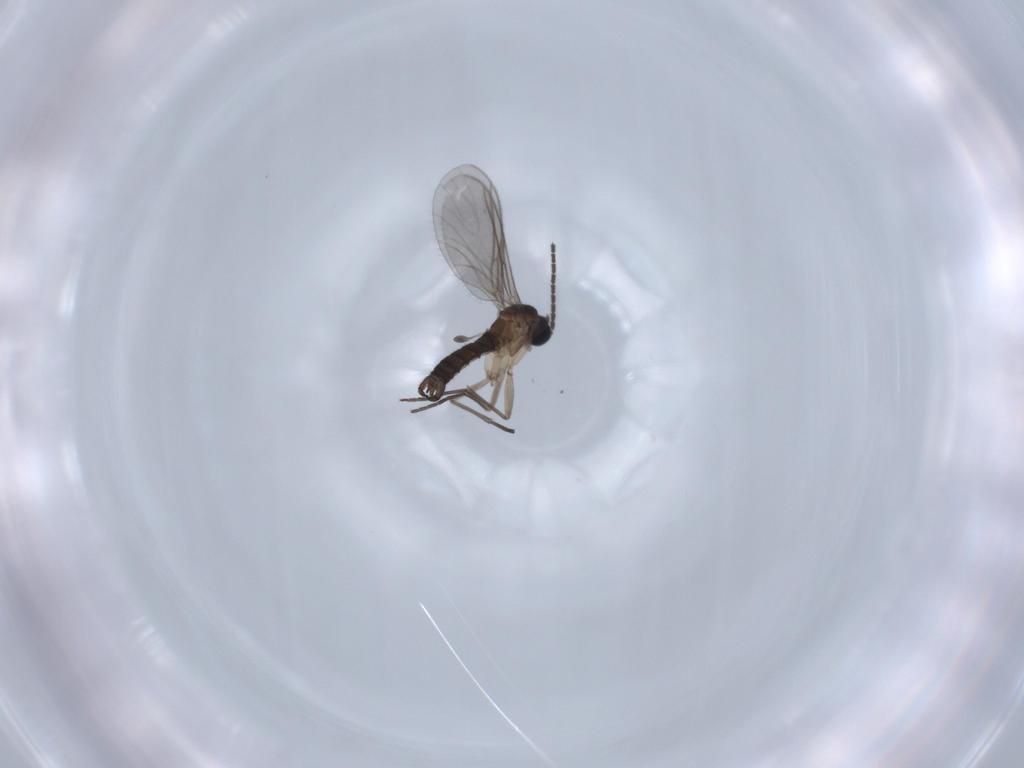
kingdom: Animalia
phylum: Arthropoda
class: Insecta
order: Diptera
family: Sciaridae
